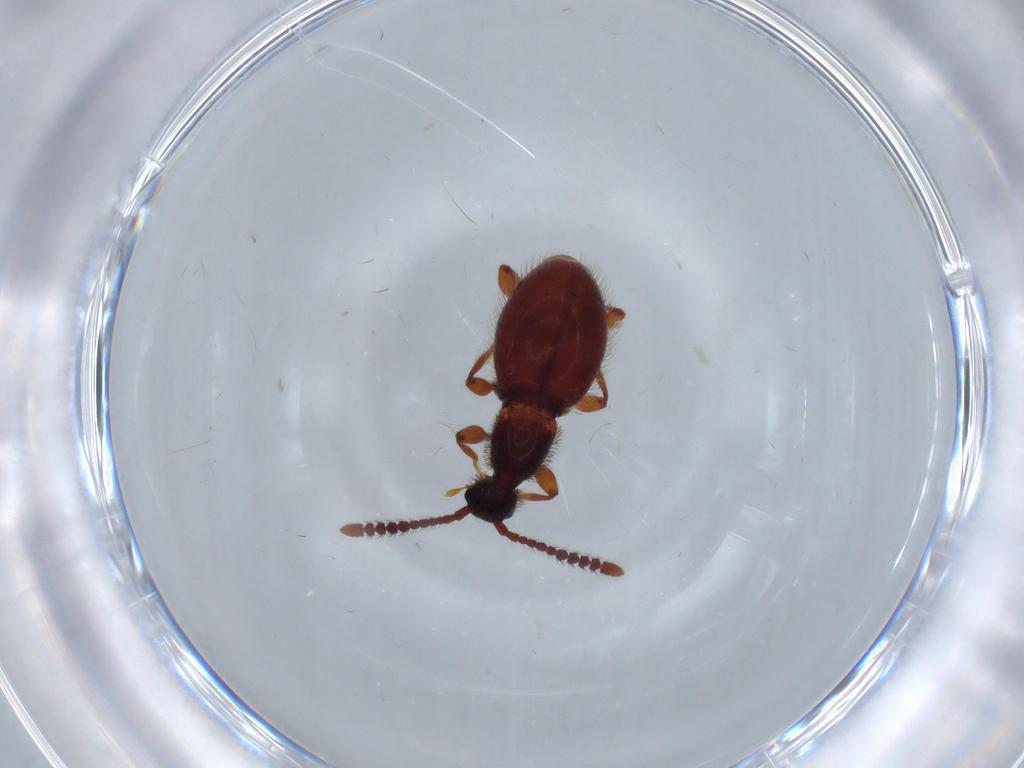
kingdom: Animalia
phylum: Arthropoda
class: Insecta
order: Coleoptera
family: Staphylinidae
